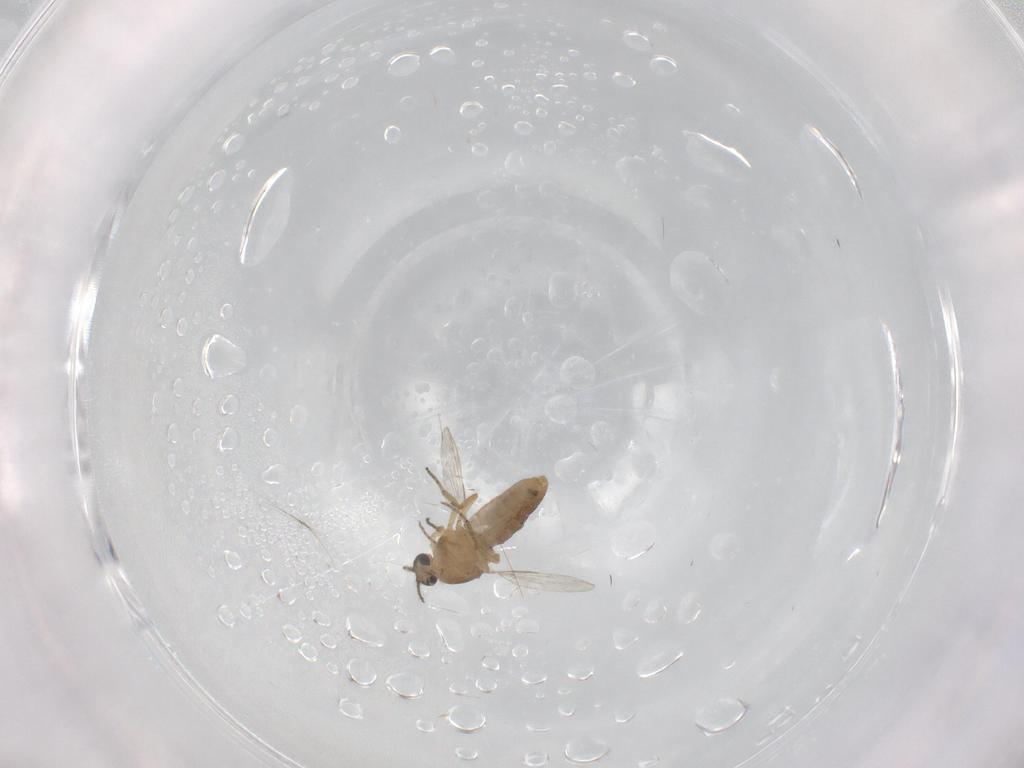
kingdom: Animalia
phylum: Arthropoda
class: Insecta
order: Diptera
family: Ceratopogonidae
